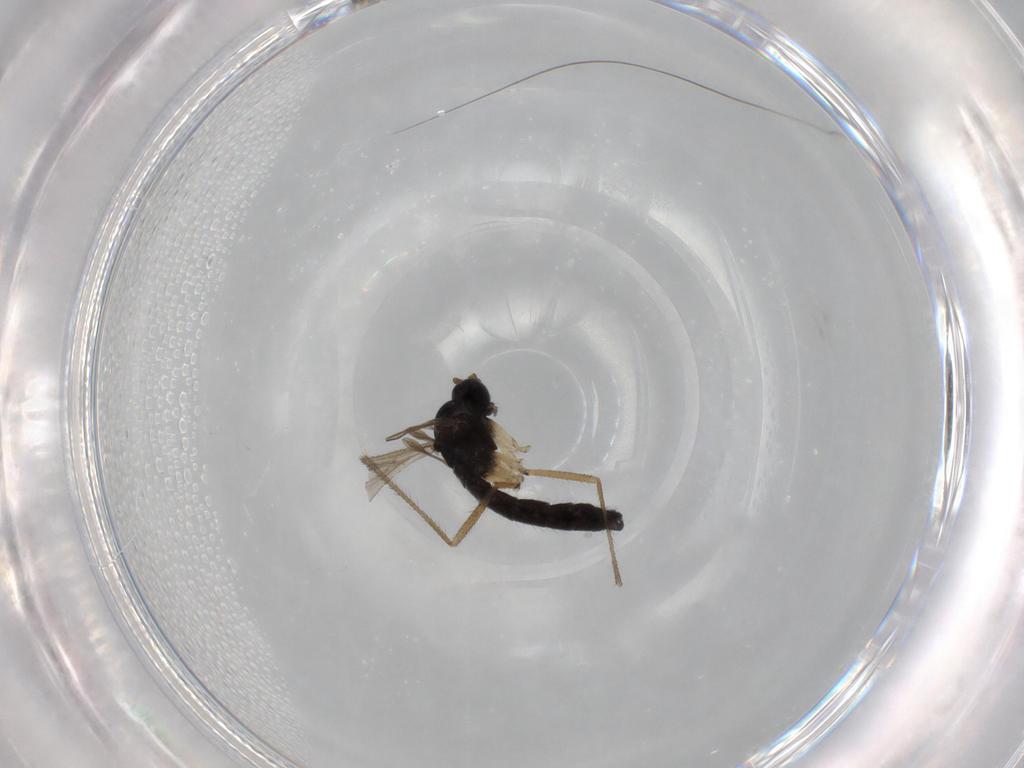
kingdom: Animalia
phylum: Arthropoda
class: Insecta
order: Diptera
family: Sciaridae
